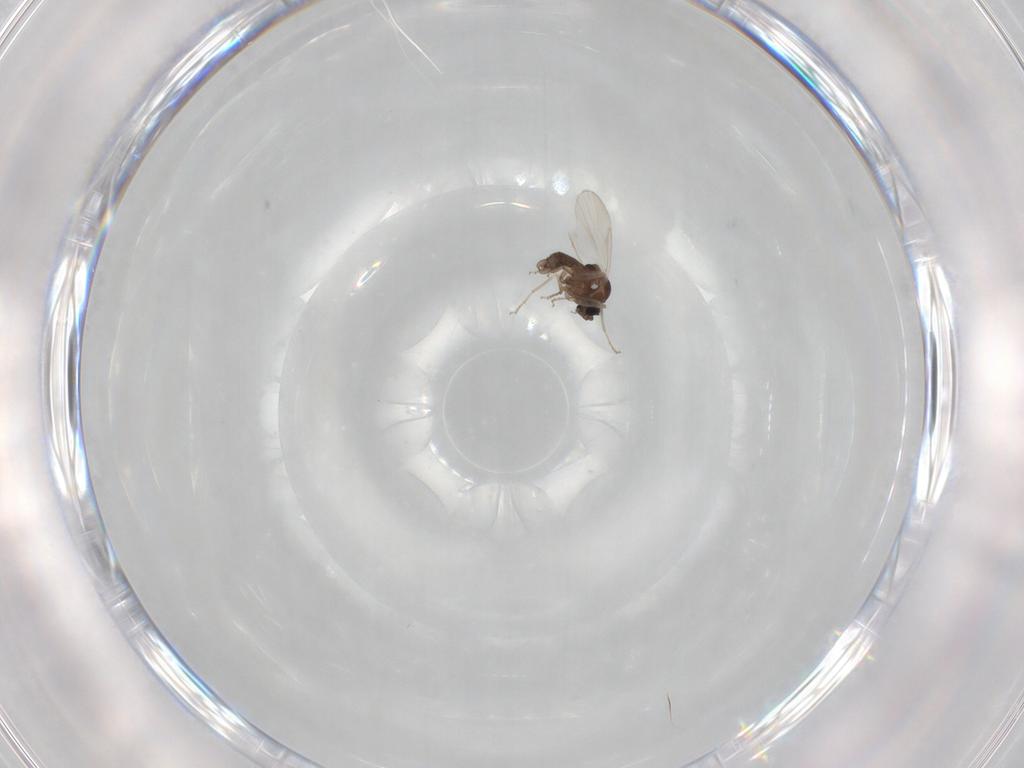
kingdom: Animalia
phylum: Arthropoda
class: Insecta
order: Diptera
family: Ceratopogonidae
